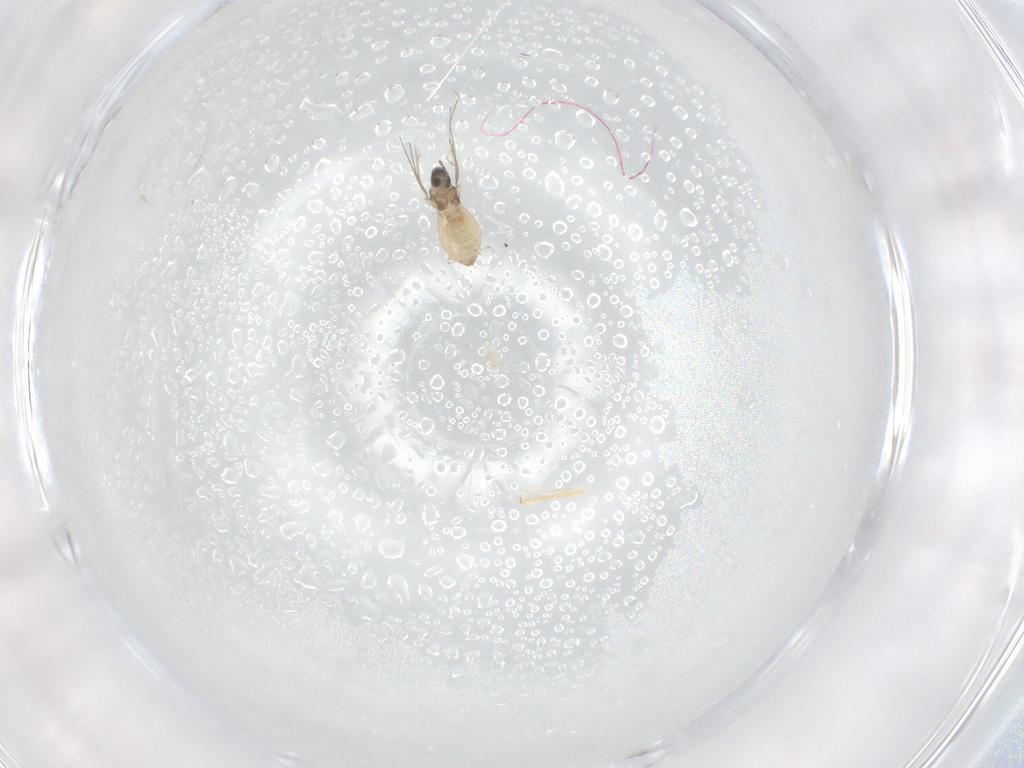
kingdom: Animalia
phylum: Arthropoda
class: Insecta
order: Diptera
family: Cecidomyiidae
